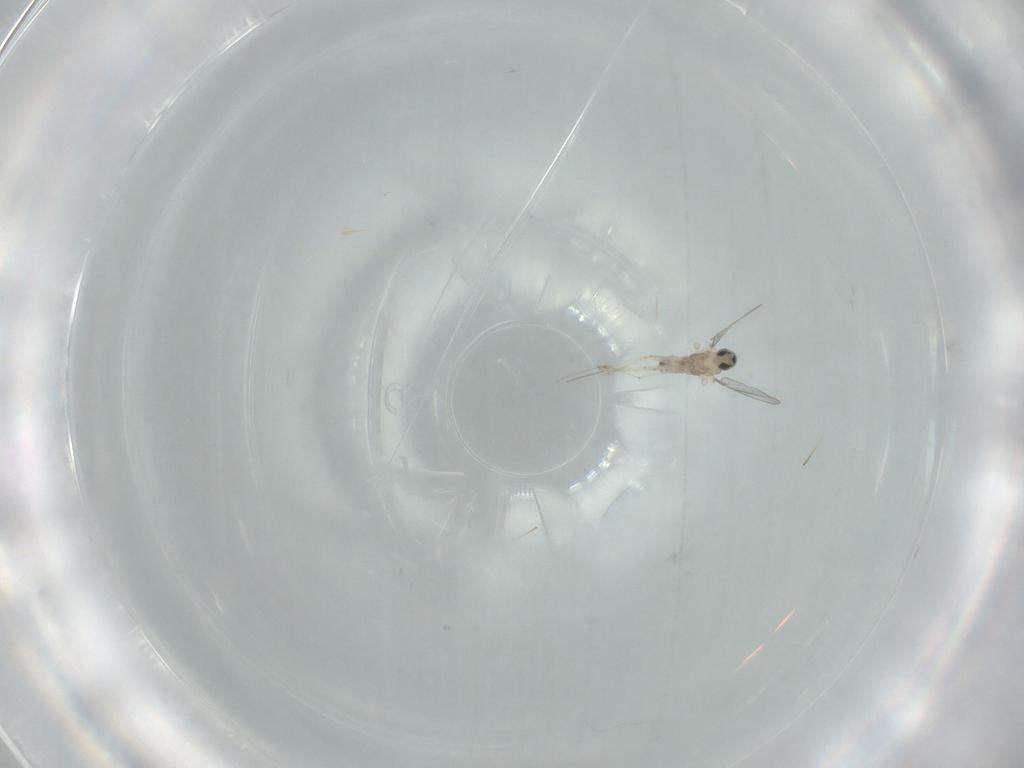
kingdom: Animalia
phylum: Arthropoda
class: Insecta
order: Diptera
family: Cecidomyiidae
